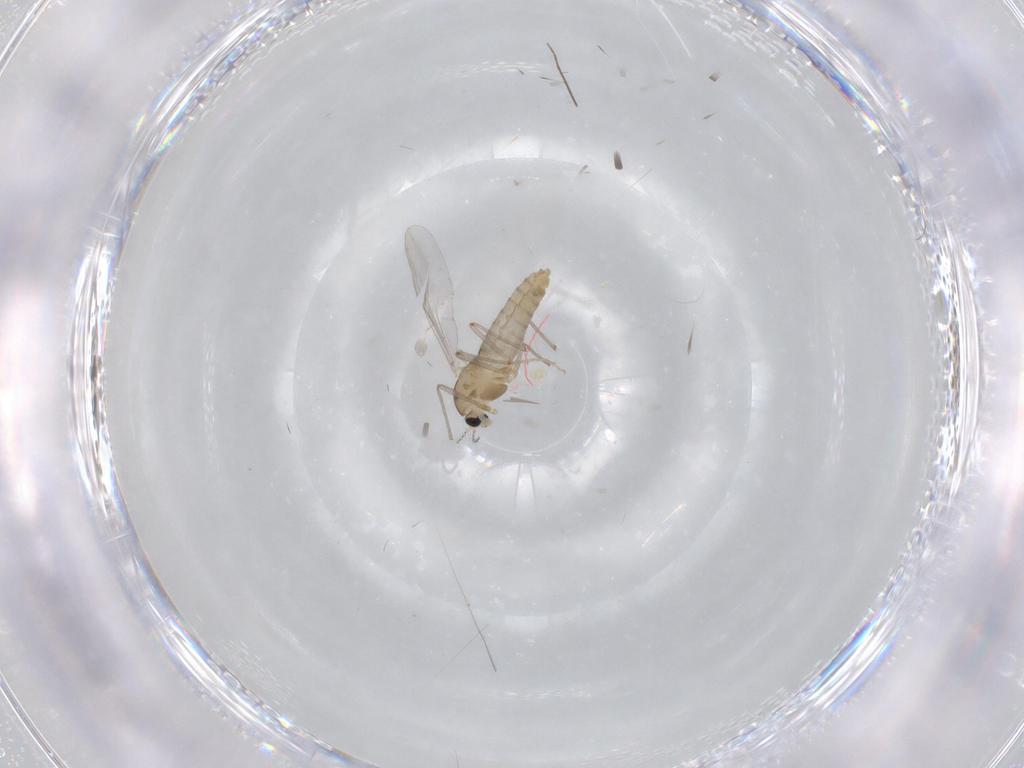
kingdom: Animalia
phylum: Arthropoda
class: Insecta
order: Diptera
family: Chironomidae
